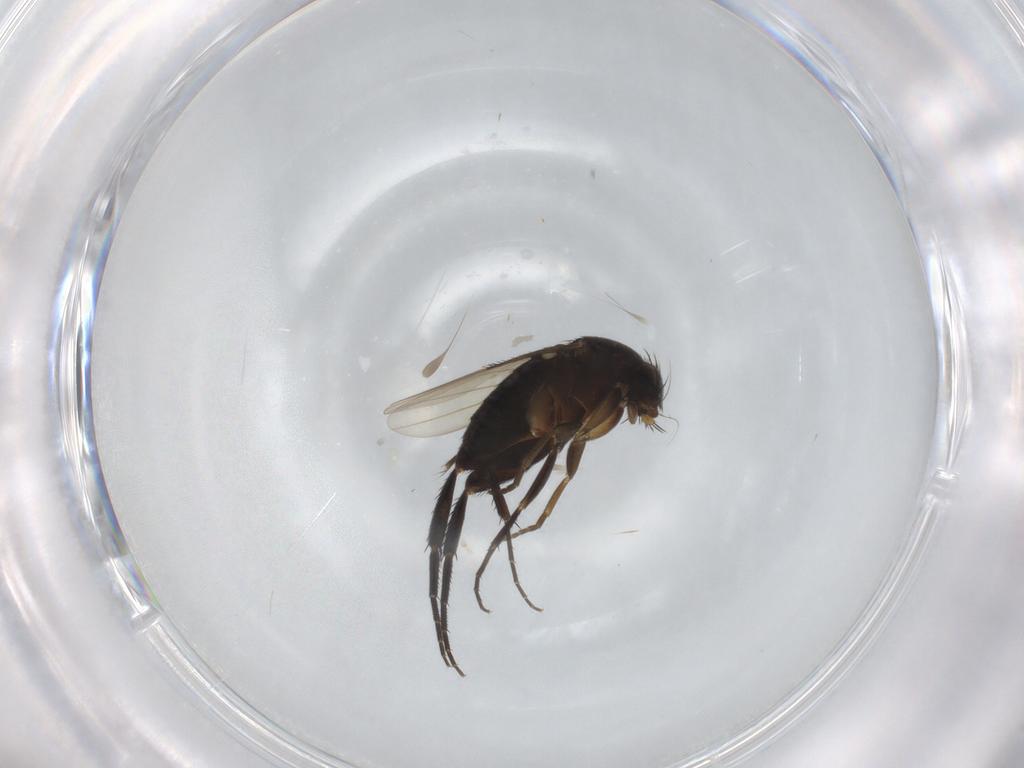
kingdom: Animalia
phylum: Arthropoda
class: Insecta
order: Diptera
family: Phoridae
